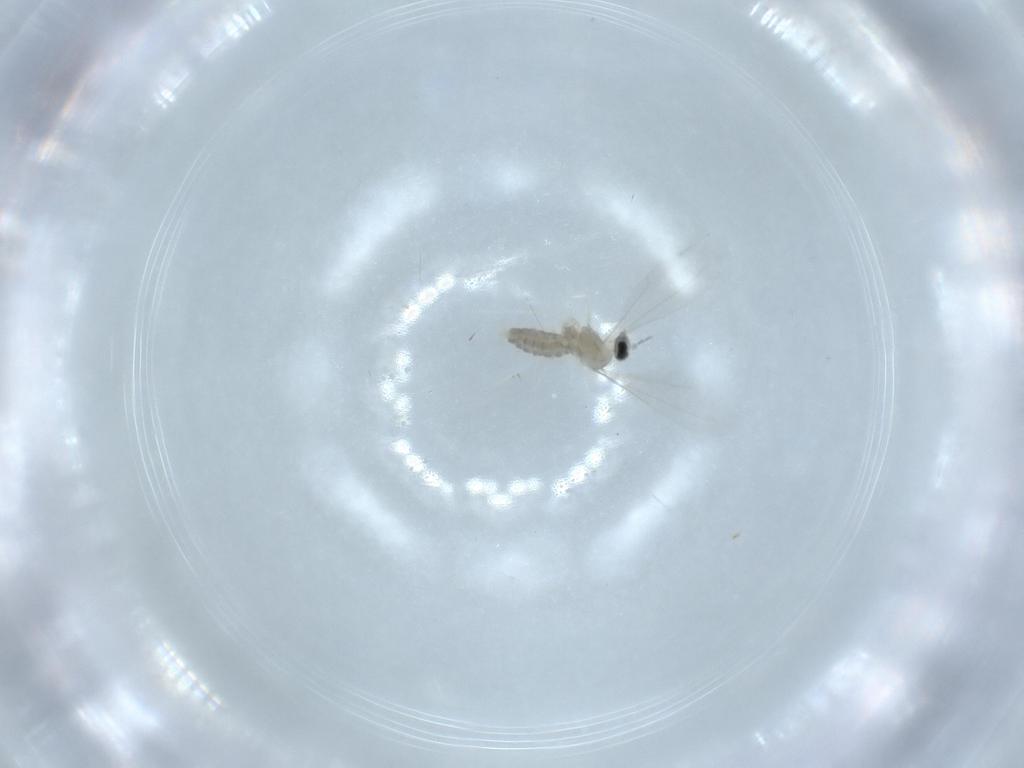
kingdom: Animalia
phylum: Arthropoda
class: Insecta
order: Diptera
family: Cecidomyiidae
